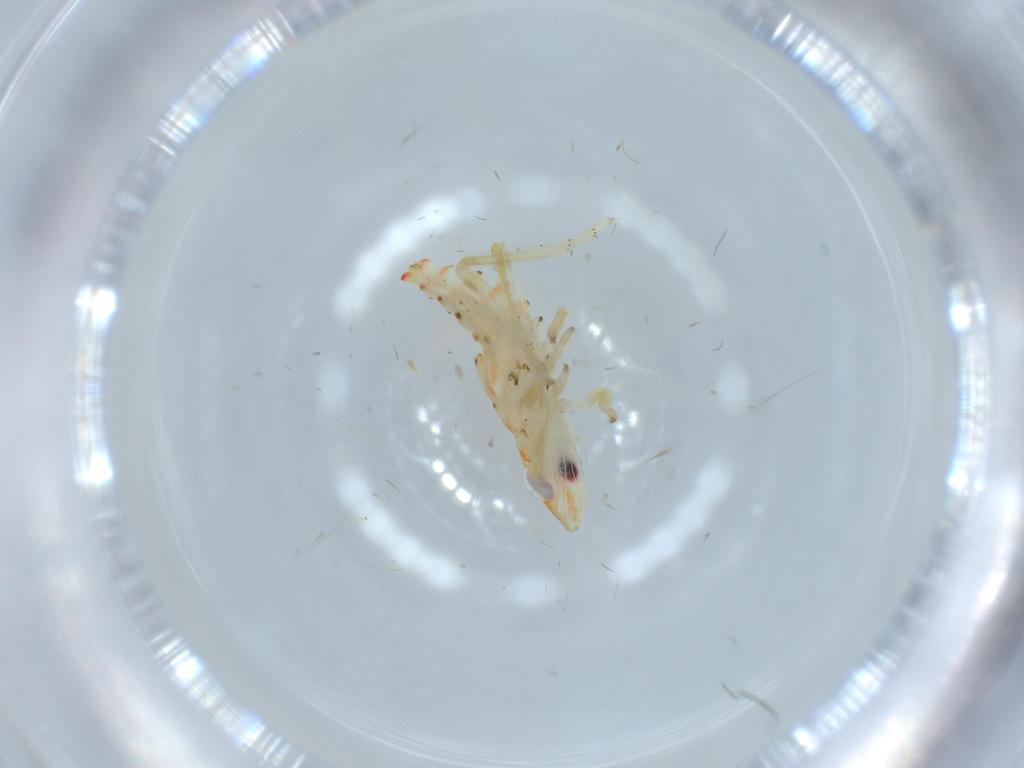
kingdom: Animalia
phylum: Arthropoda
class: Insecta
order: Hemiptera
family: Tropiduchidae
